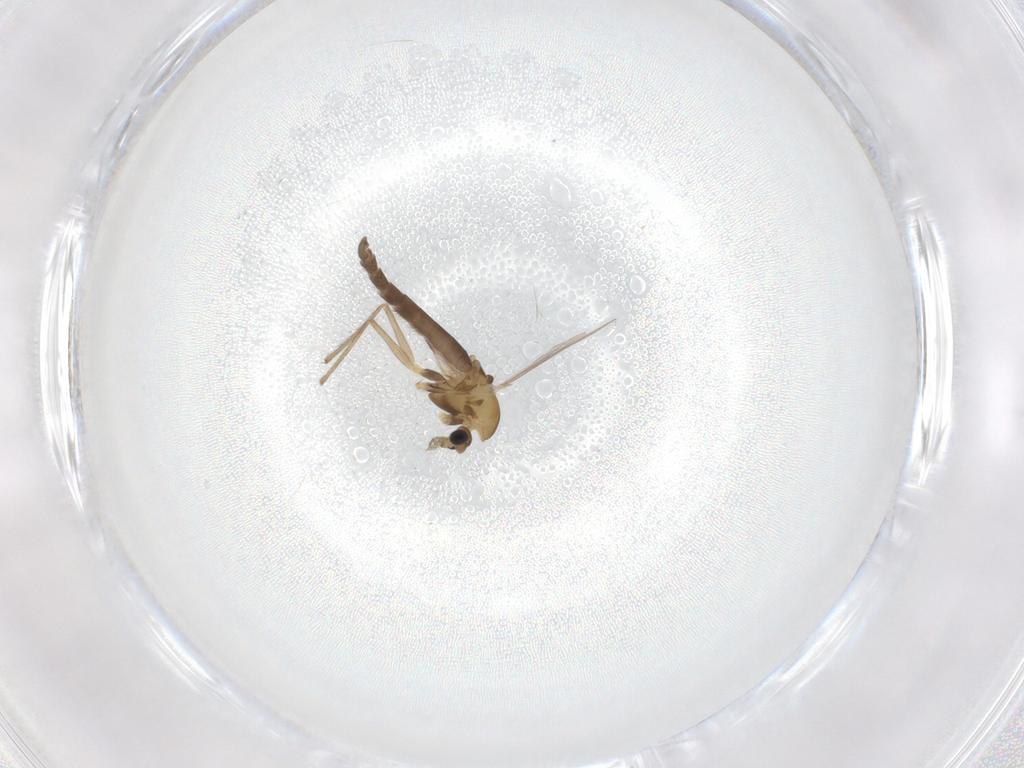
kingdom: Animalia
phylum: Arthropoda
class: Insecta
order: Diptera
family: Chironomidae
